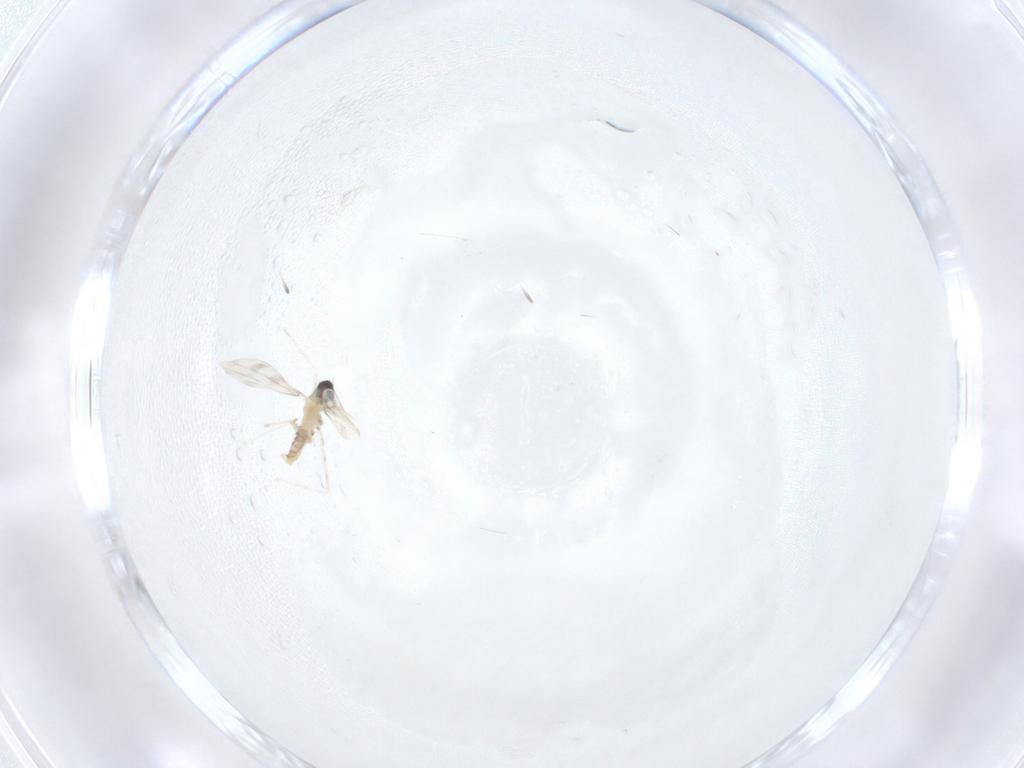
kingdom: Animalia
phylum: Arthropoda
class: Insecta
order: Diptera
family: Cecidomyiidae
